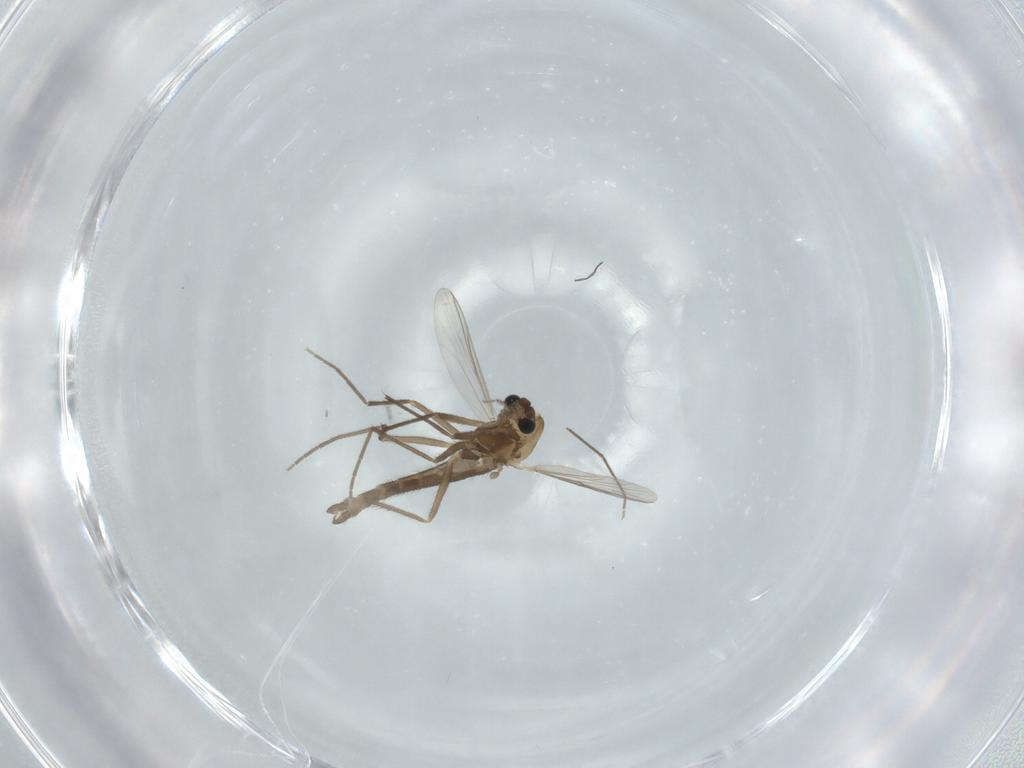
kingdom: Animalia
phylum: Arthropoda
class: Insecta
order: Diptera
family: Chironomidae
